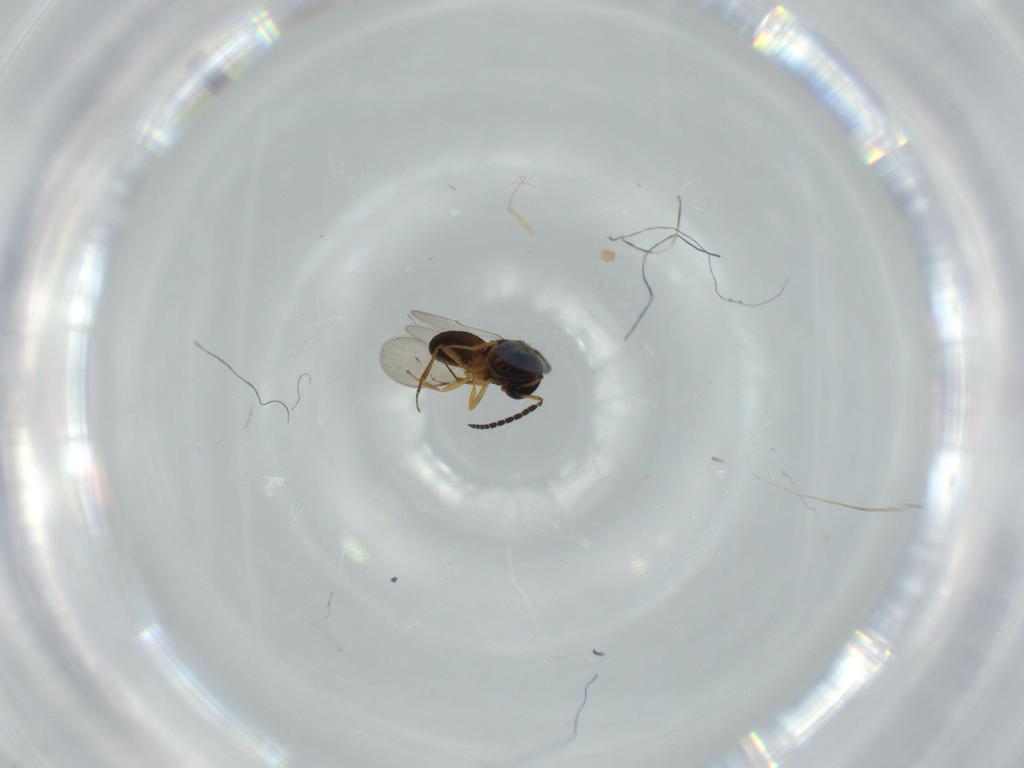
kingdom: Animalia
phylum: Arthropoda
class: Insecta
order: Hymenoptera
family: Scelionidae
